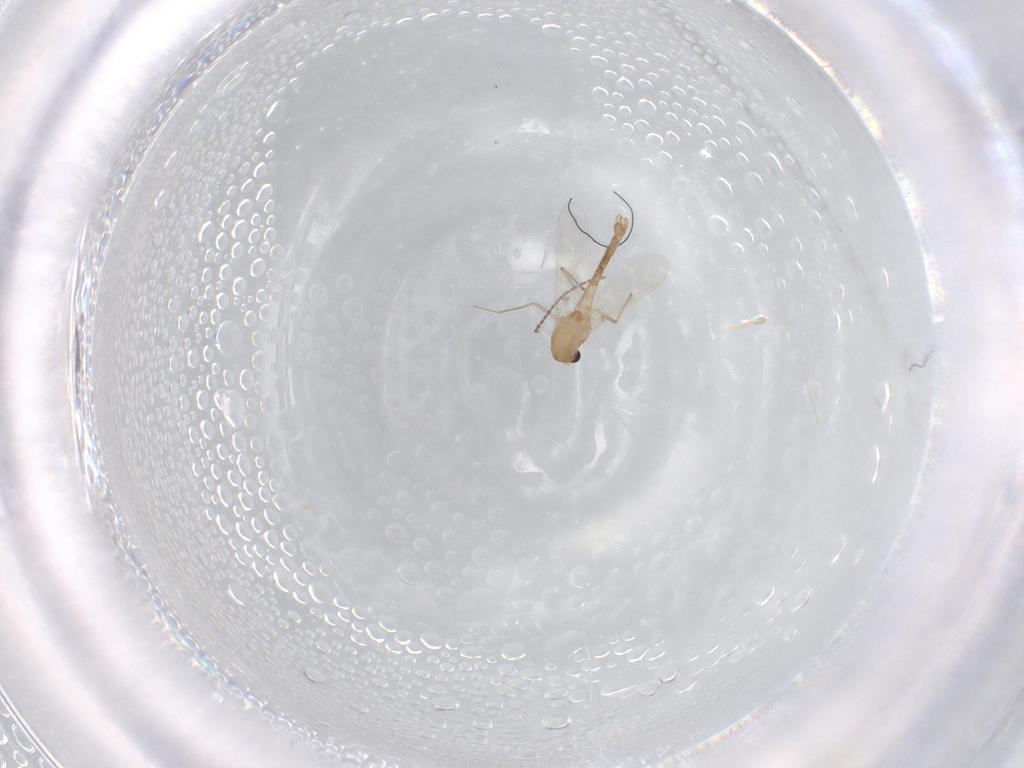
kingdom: Animalia
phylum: Arthropoda
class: Insecta
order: Diptera
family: Chironomidae
